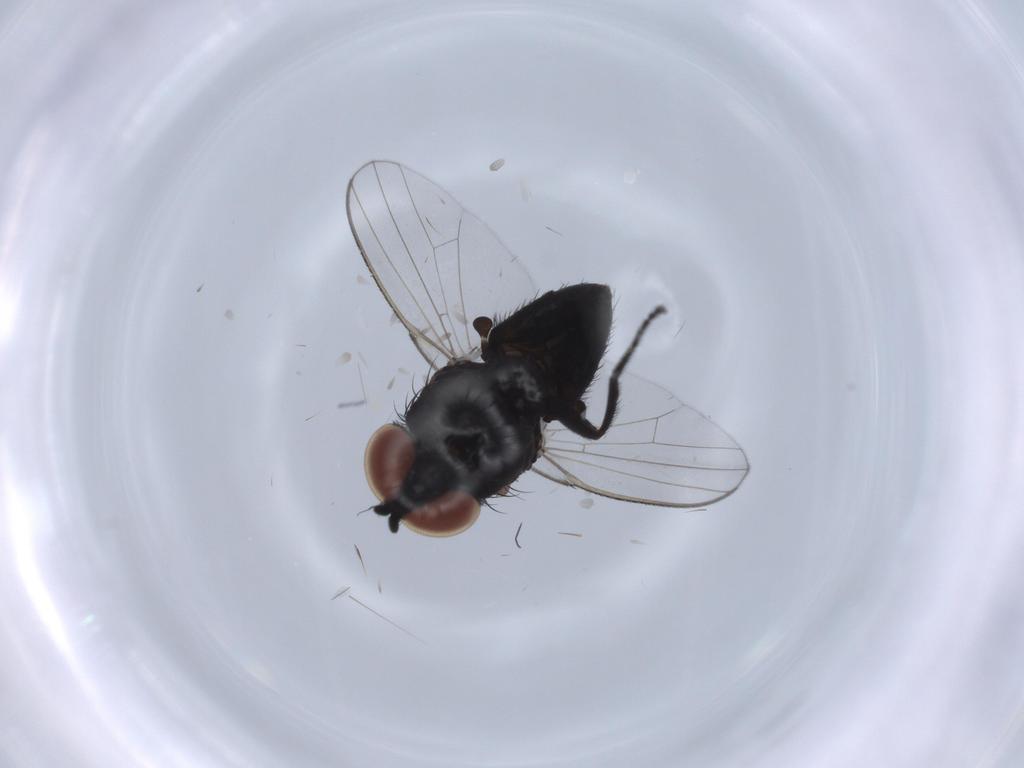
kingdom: Animalia
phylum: Arthropoda
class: Insecta
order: Diptera
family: Milichiidae
